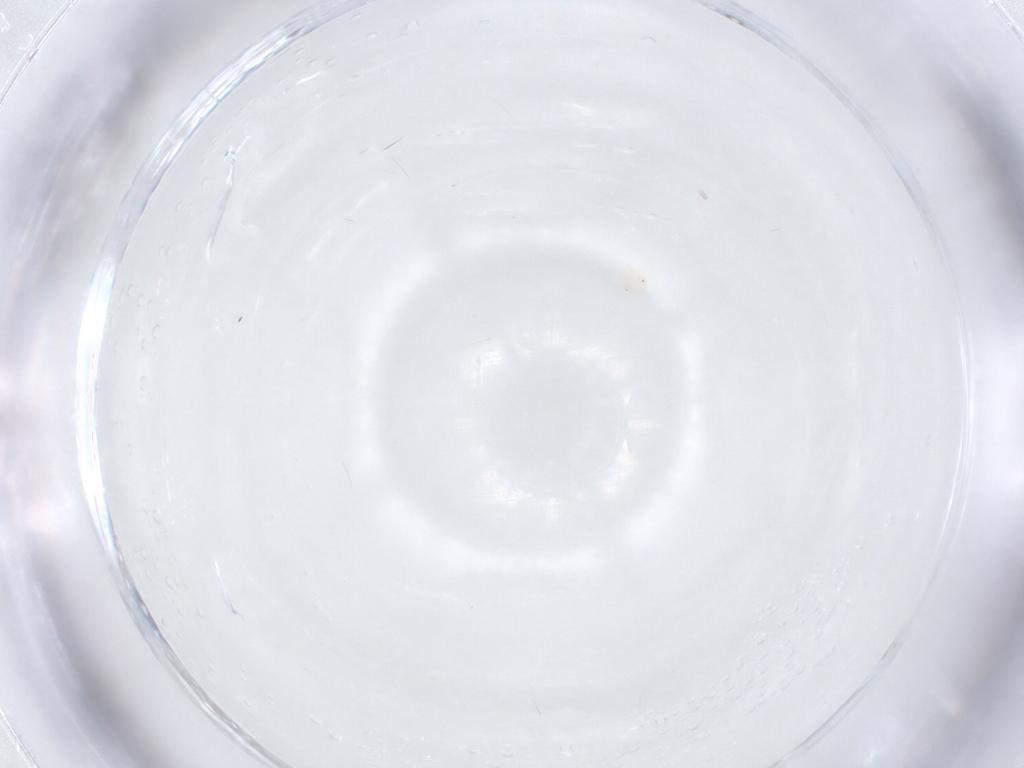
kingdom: Animalia
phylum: Arthropoda
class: Arachnida
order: Trombidiformes
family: Anystidae
